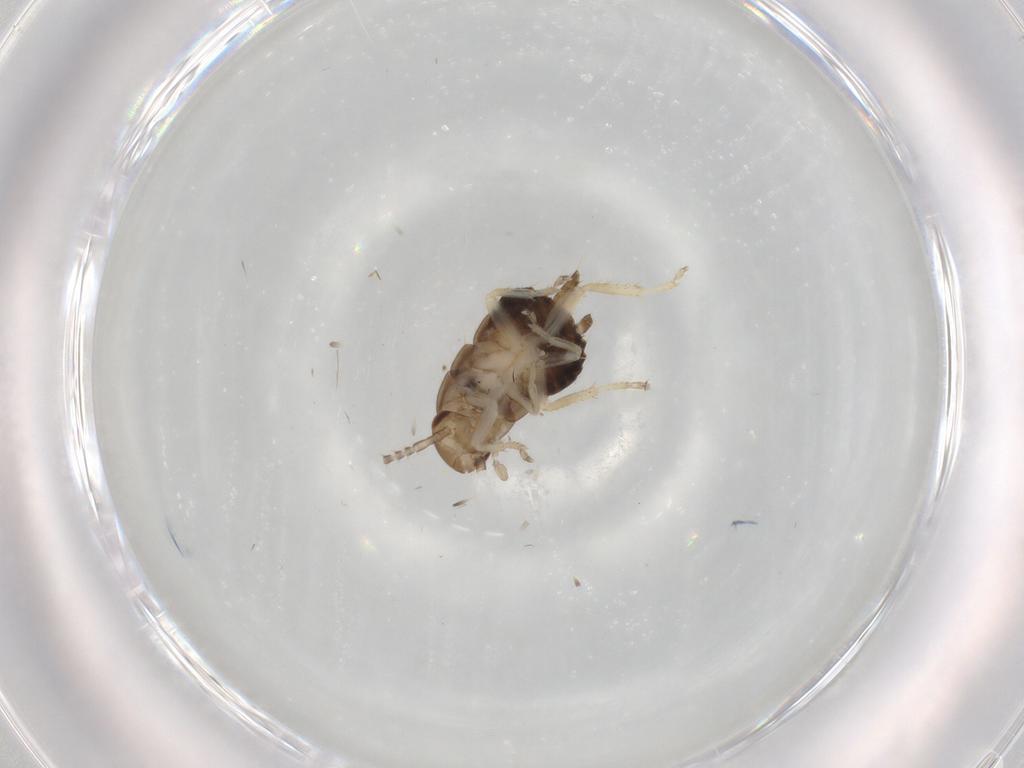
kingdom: Animalia
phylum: Arthropoda
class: Insecta
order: Blattodea
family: Ectobiidae
